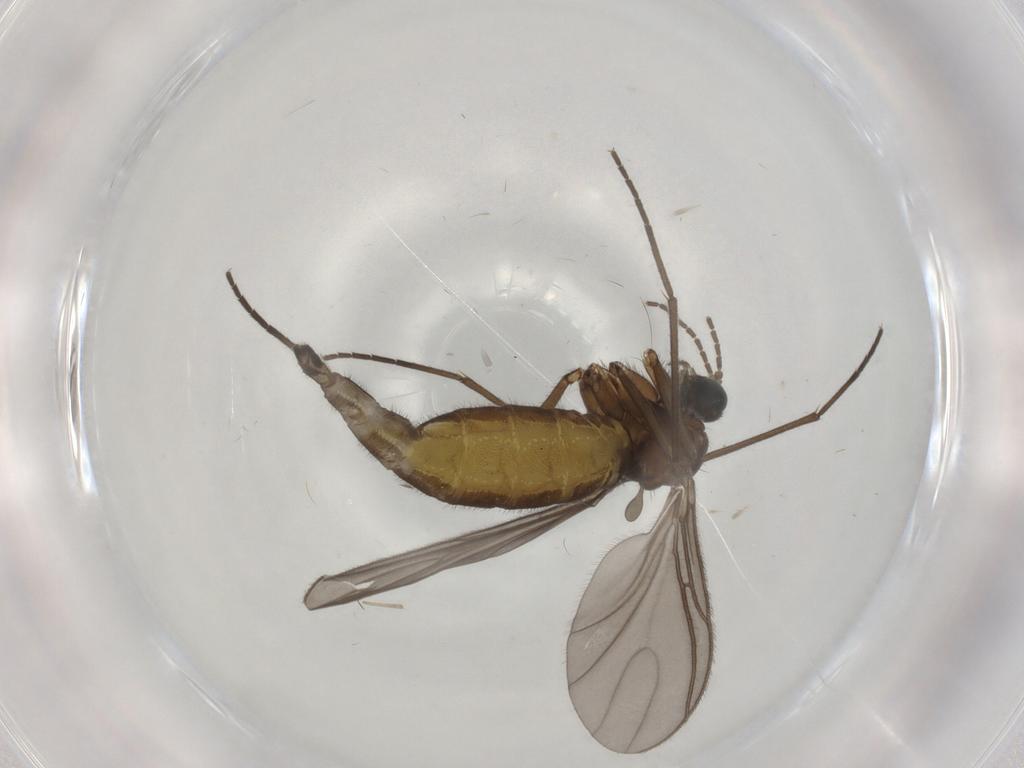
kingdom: Animalia
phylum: Arthropoda
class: Insecta
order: Diptera
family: Sciaridae
